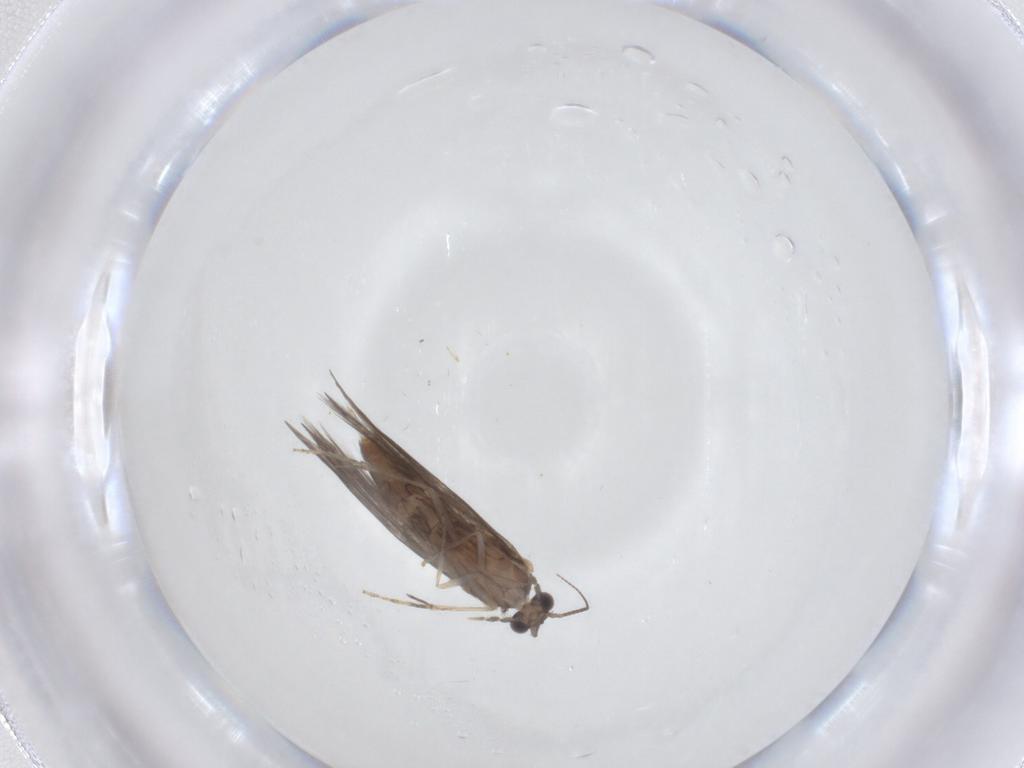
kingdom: Animalia
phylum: Arthropoda
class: Insecta
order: Trichoptera
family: Hydroptilidae
